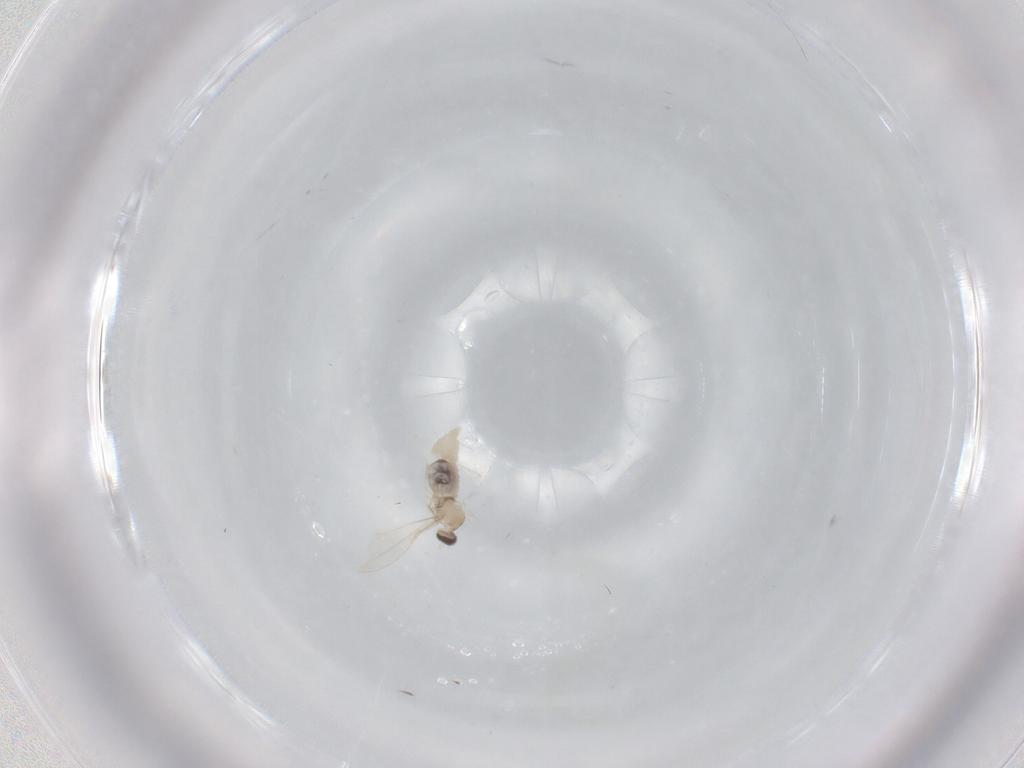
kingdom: Animalia
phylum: Arthropoda
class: Insecta
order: Diptera
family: Cecidomyiidae
